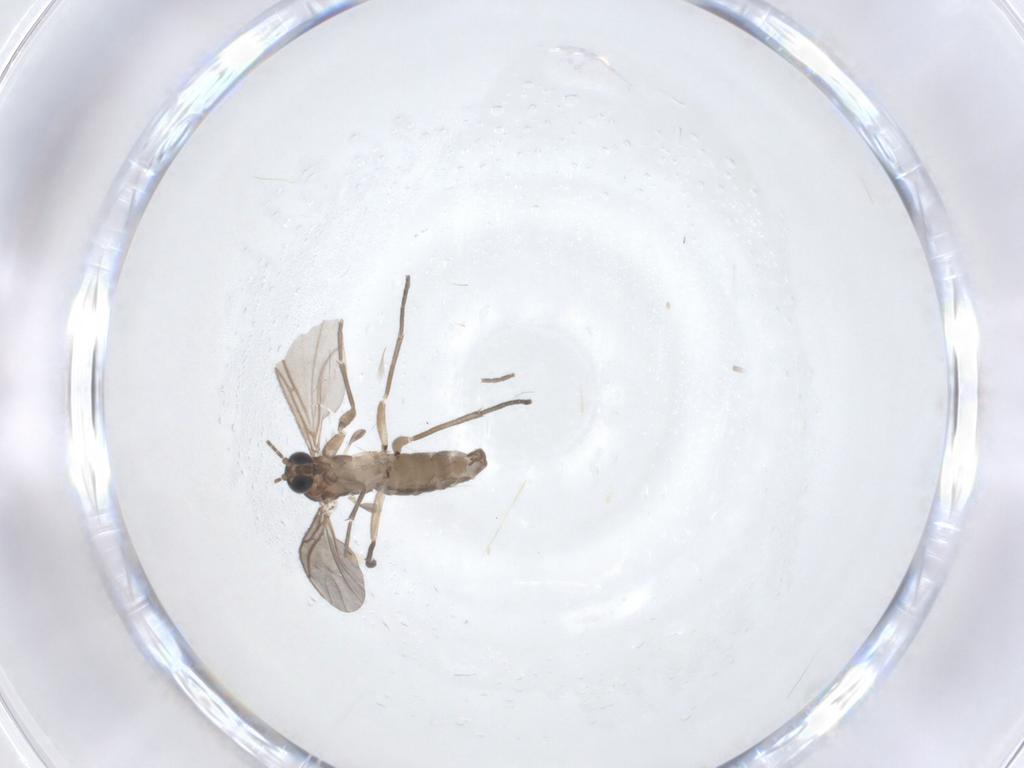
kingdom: Animalia
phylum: Arthropoda
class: Insecta
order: Diptera
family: Sciaridae
